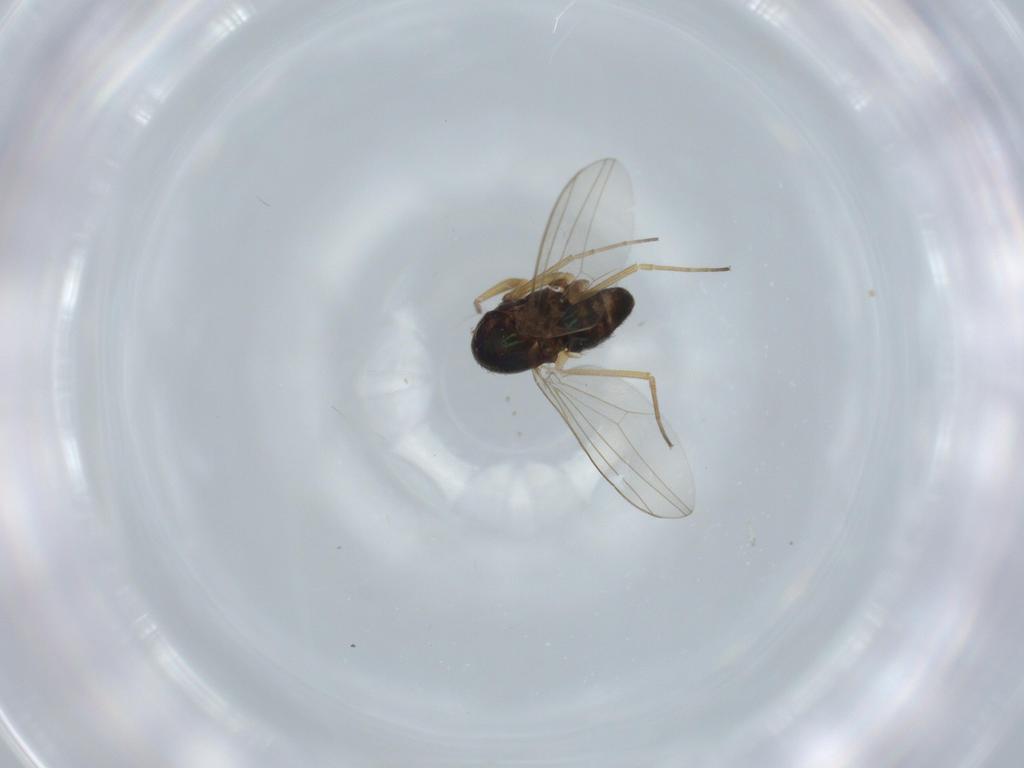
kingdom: Animalia
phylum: Arthropoda
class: Insecta
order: Diptera
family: Dolichopodidae
